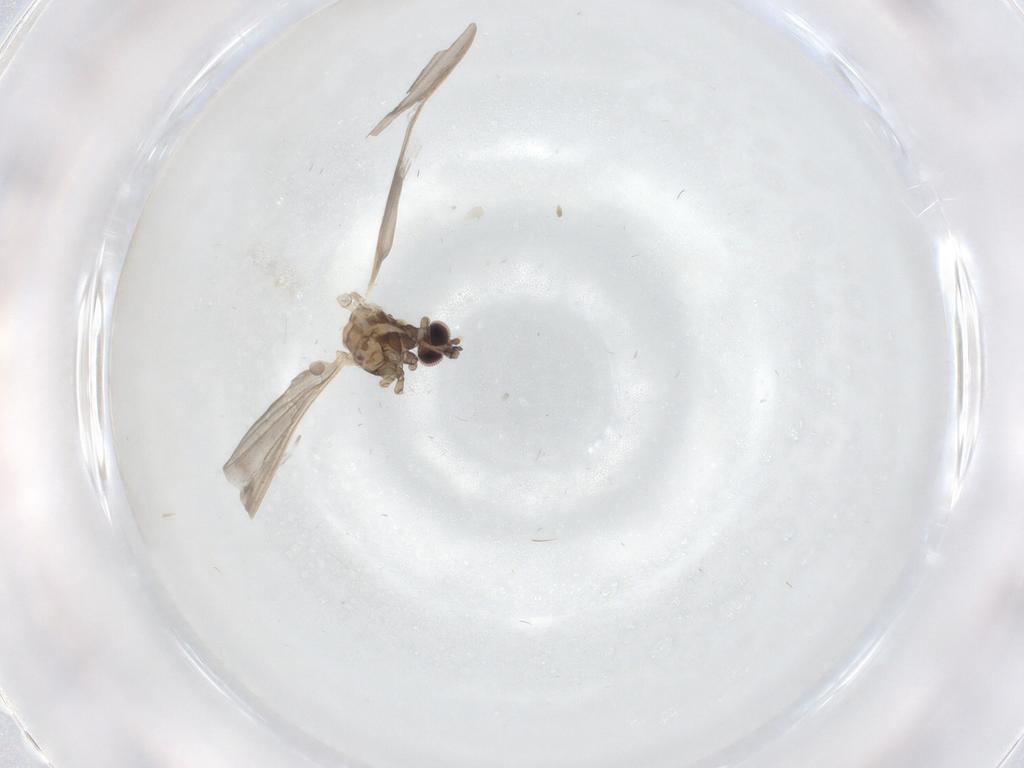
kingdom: Animalia
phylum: Arthropoda
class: Insecta
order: Diptera
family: Limoniidae
